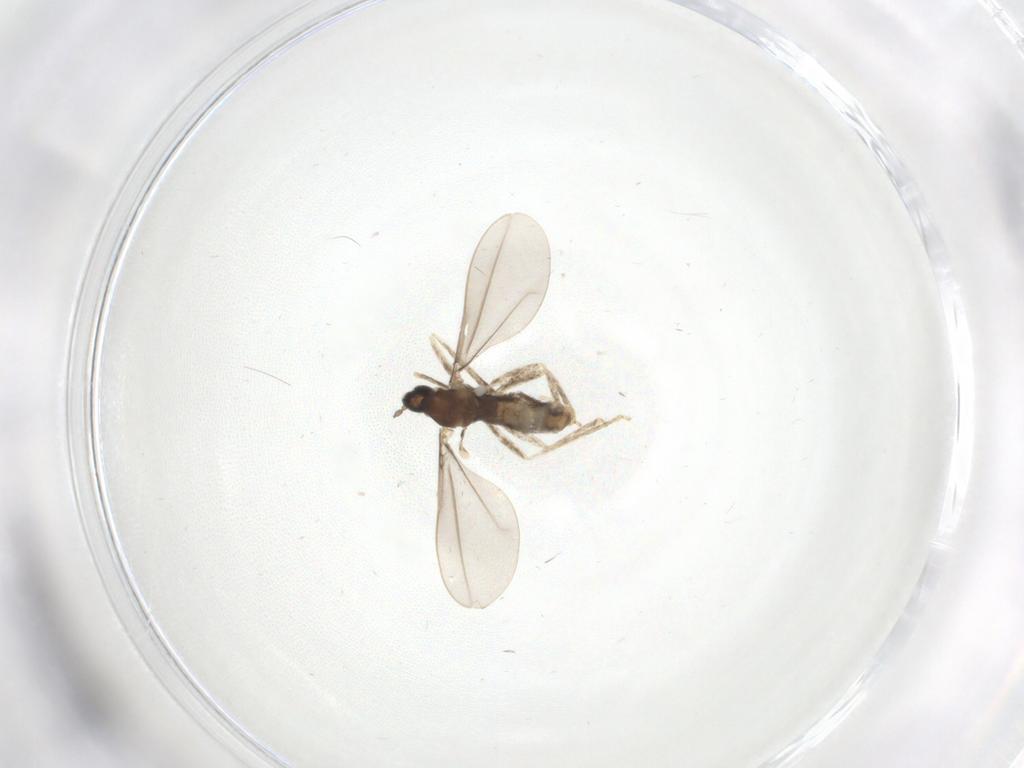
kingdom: Animalia
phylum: Arthropoda
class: Insecta
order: Diptera
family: Cecidomyiidae
